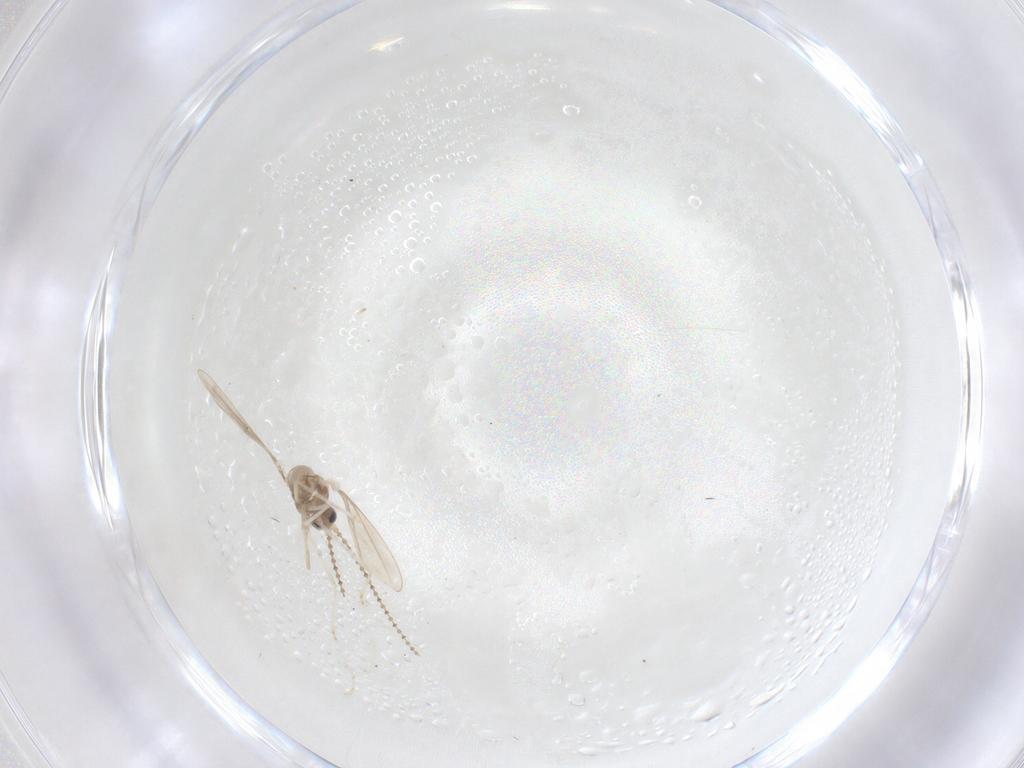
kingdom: Animalia
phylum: Arthropoda
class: Insecta
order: Diptera
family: Cecidomyiidae
